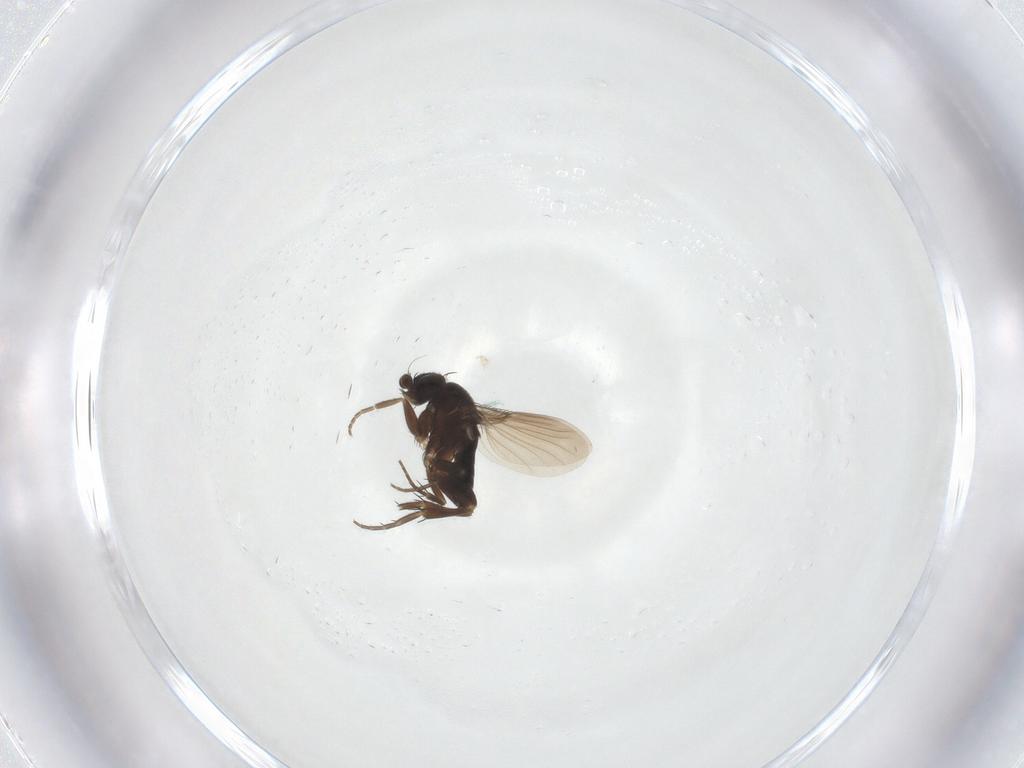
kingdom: Animalia
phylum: Arthropoda
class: Insecta
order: Diptera
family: Phoridae
